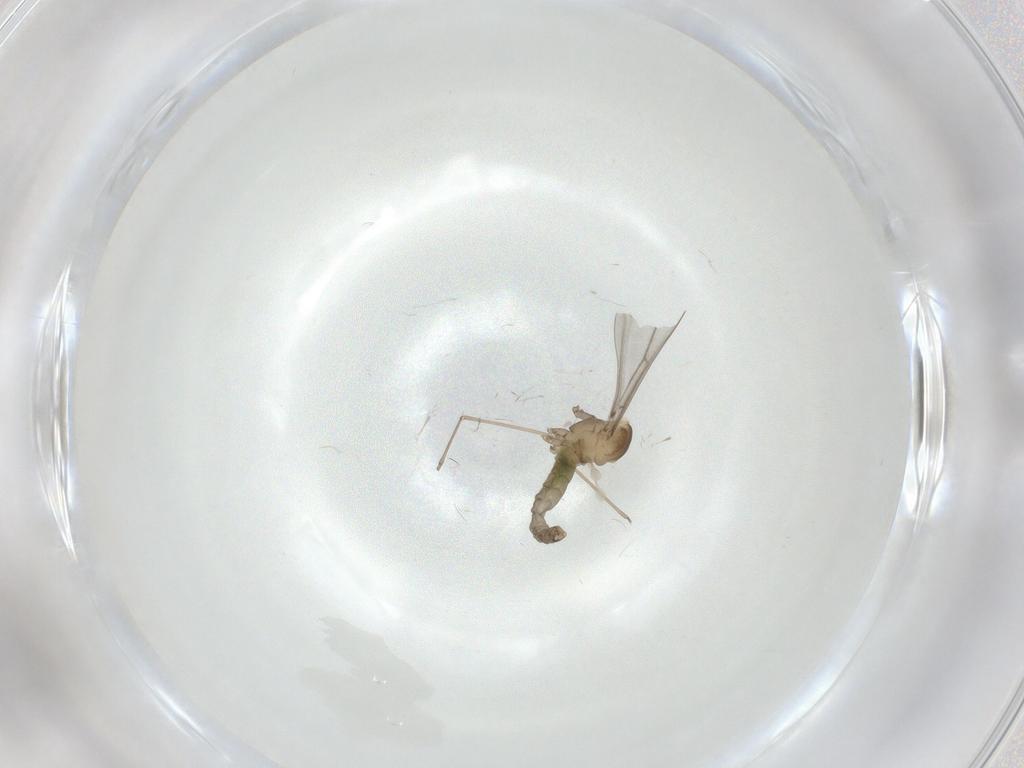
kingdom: Animalia
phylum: Arthropoda
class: Insecta
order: Diptera
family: Cecidomyiidae
